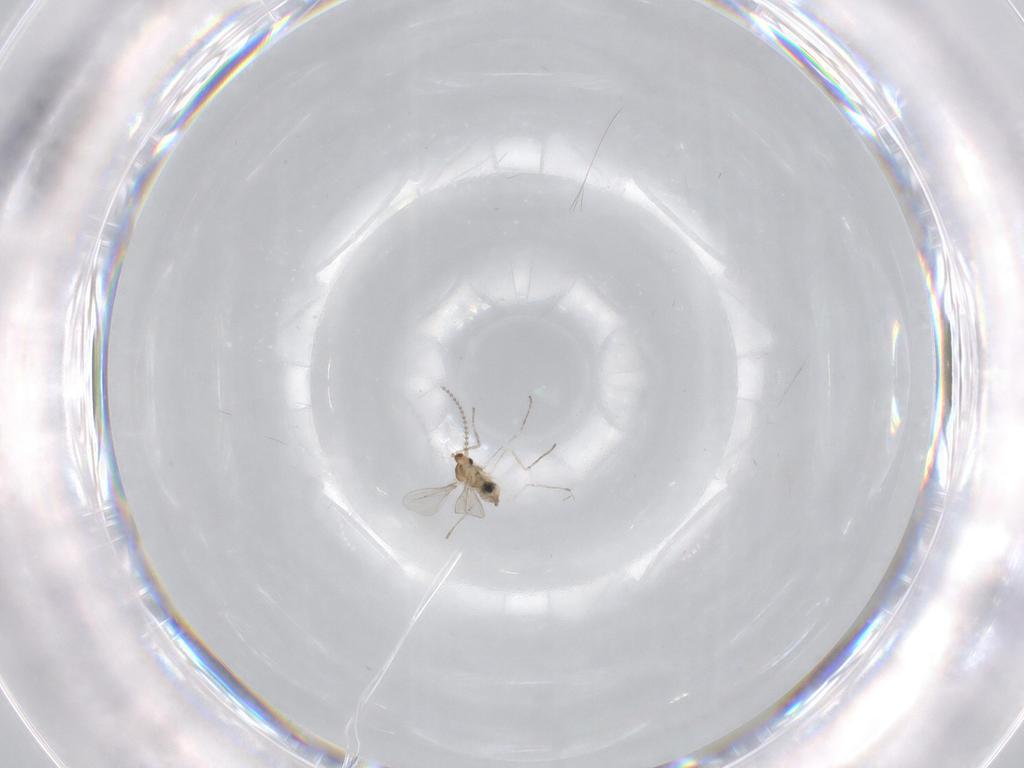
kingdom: Animalia
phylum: Arthropoda
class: Insecta
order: Diptera
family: Cecidomyiidae
